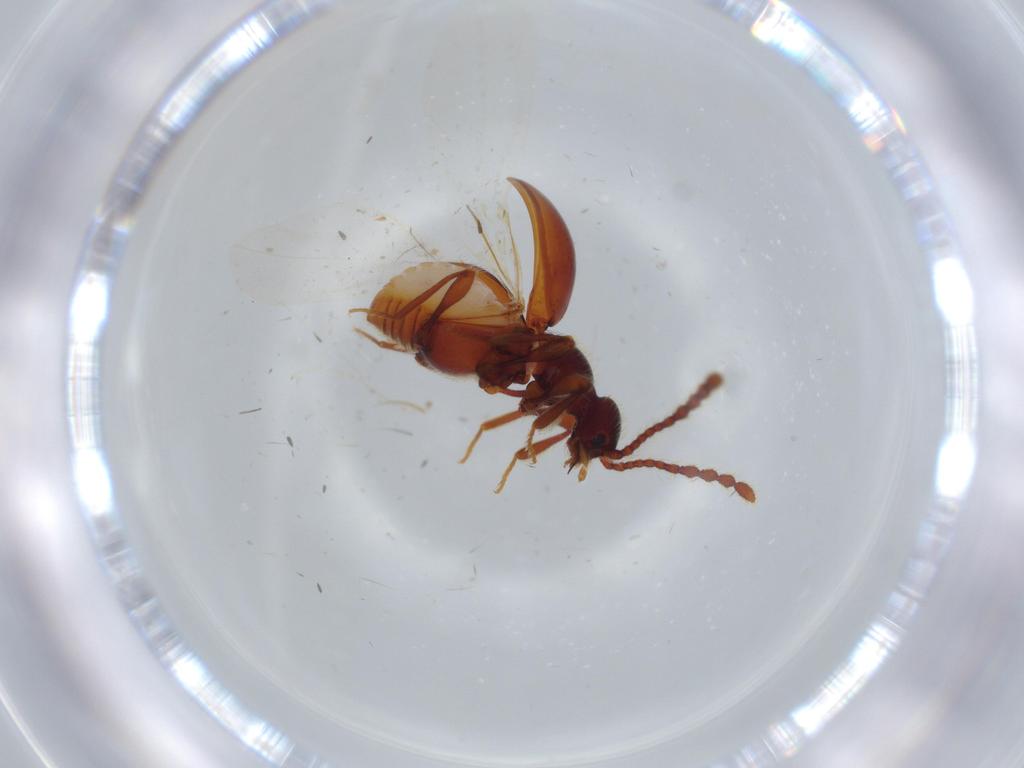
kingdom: Animalia
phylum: Arthropoda
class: Insecta
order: Coleoptera
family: Staphylinidae
